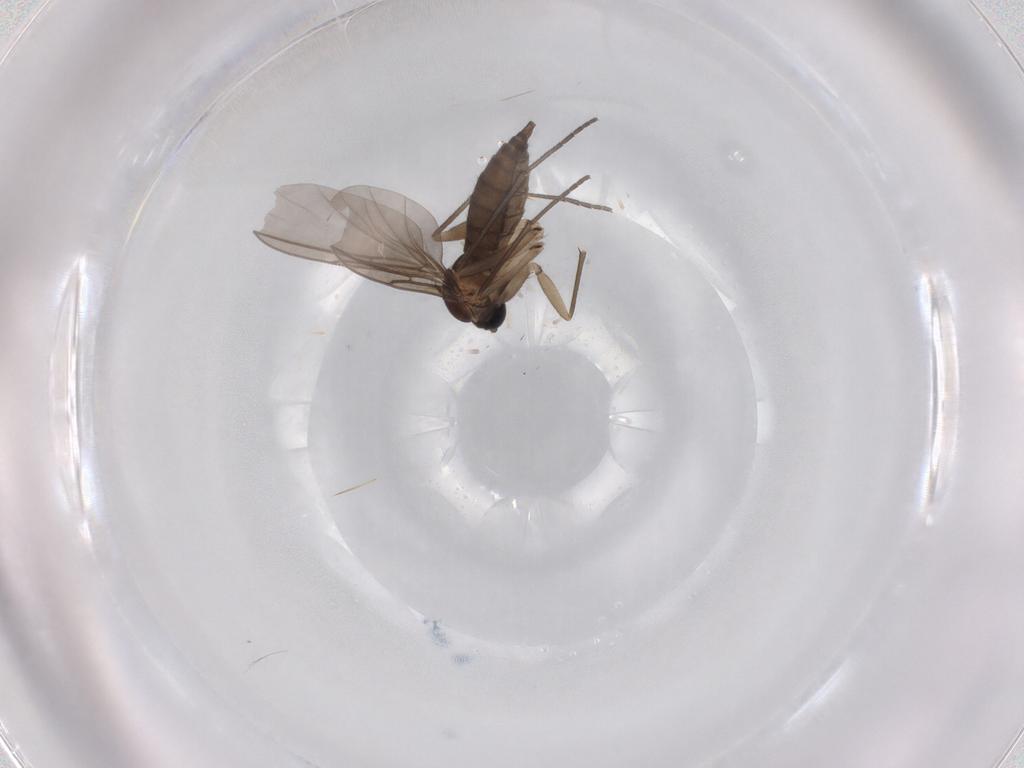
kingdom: Animalia
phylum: Arthropoda
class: Insecta
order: Diptera
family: Sciaridae
